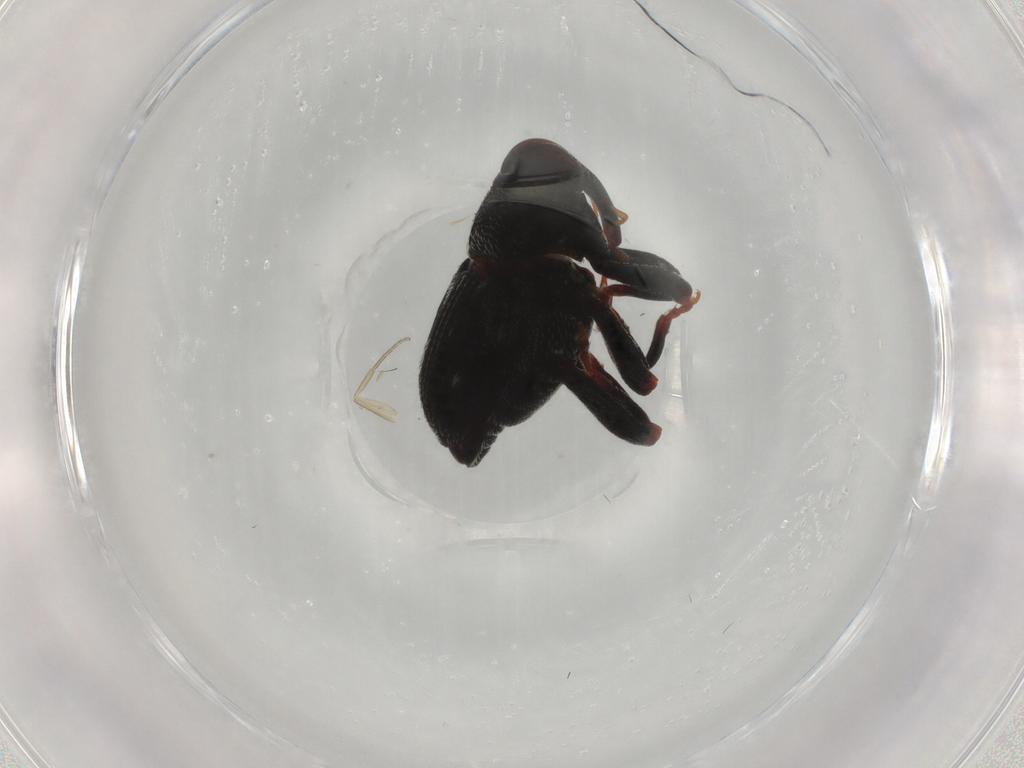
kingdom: Animalia
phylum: Arthropoda
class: Insecta
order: Coleoptera
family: Curculionidae
